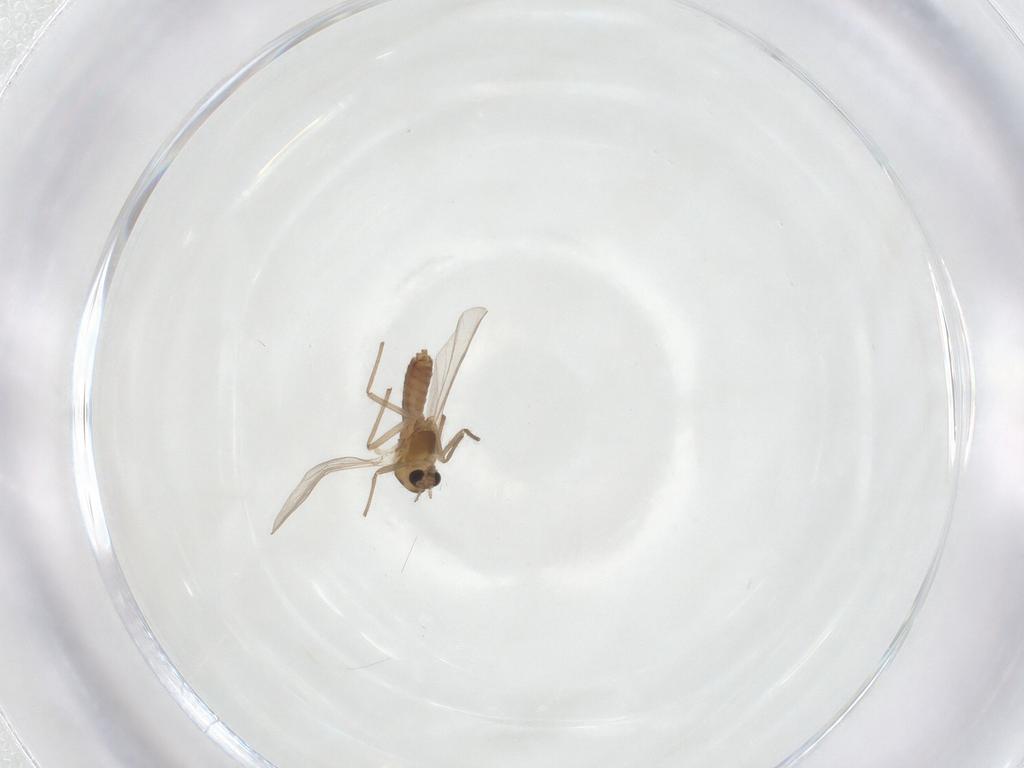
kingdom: Animalia
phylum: Arthropoda
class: Insecta
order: Diptera
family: Chironomidae
